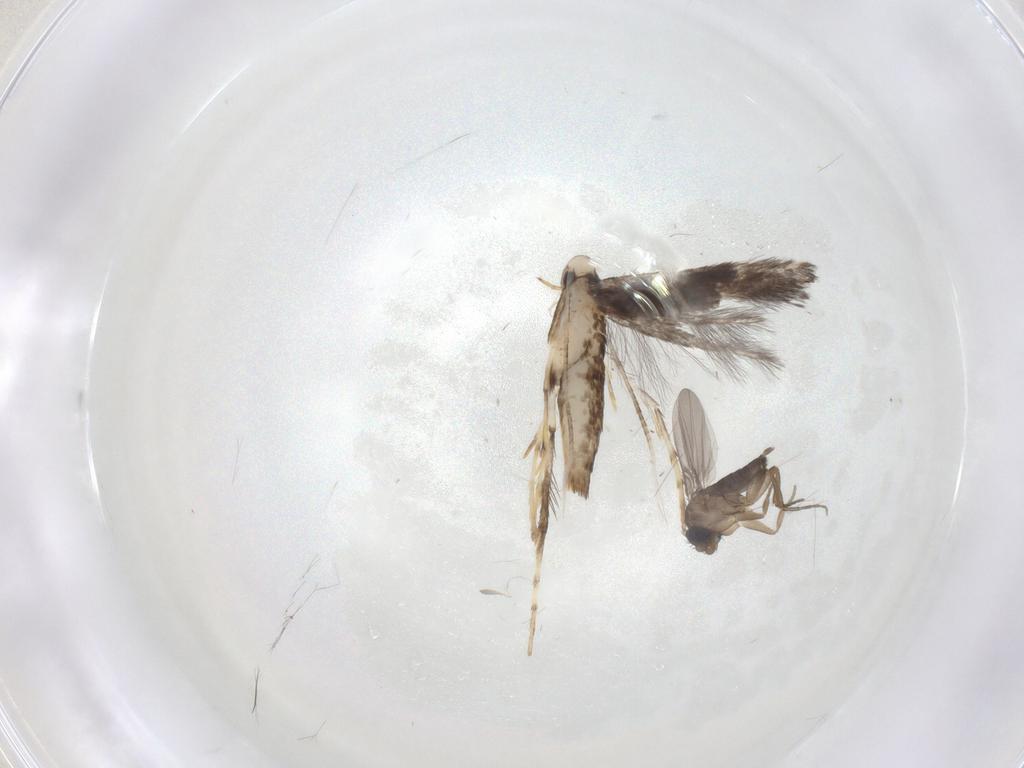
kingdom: Animalia
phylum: Arthropoda
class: Insecta
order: Diptera
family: Phoridae
